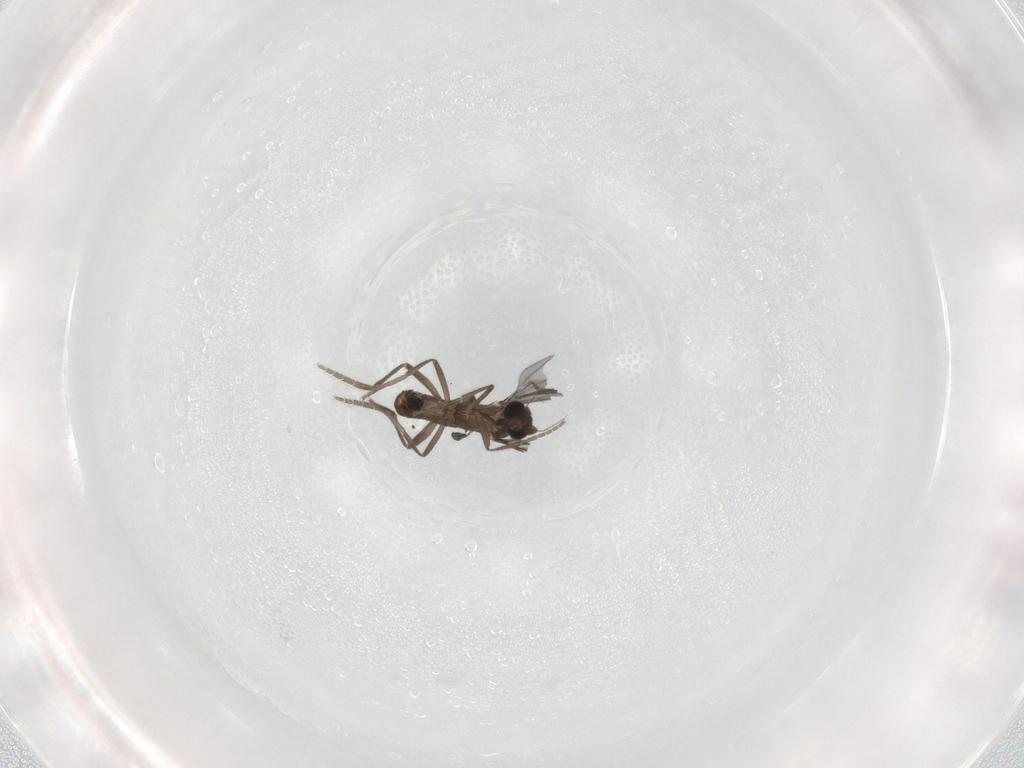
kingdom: Animalia
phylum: Arthropoda
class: Insecta
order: Diptera
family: Phoridae
